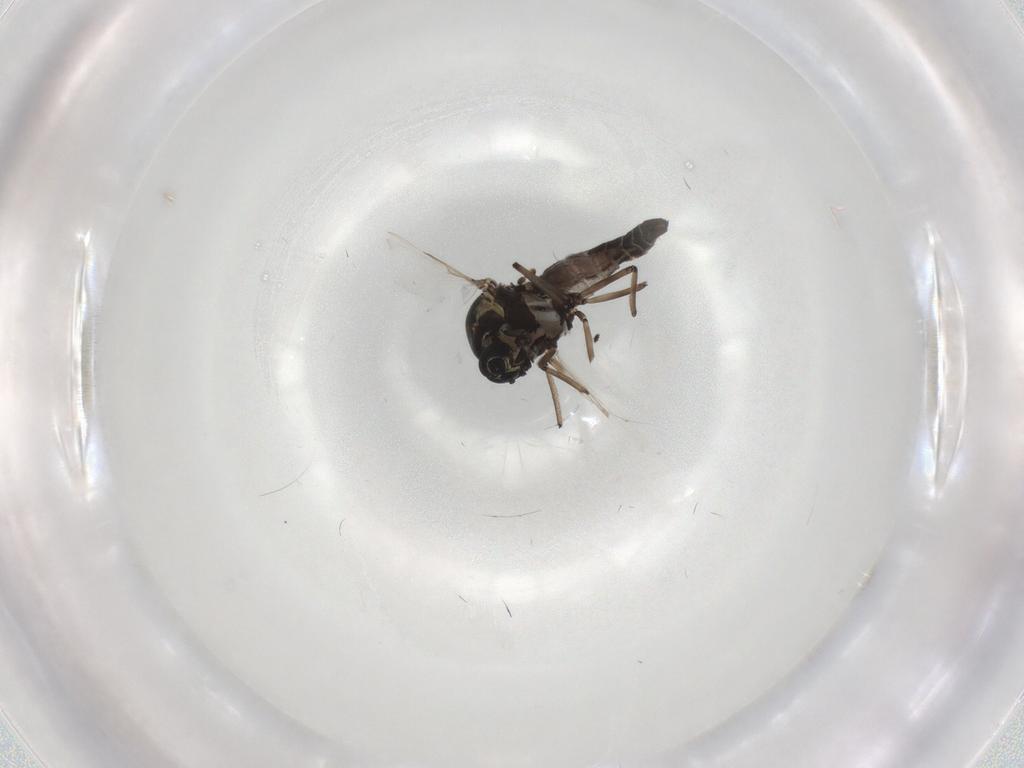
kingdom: Animalia
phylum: Arthropoda
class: Insecta
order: Diptera
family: Ceratopogonidae
